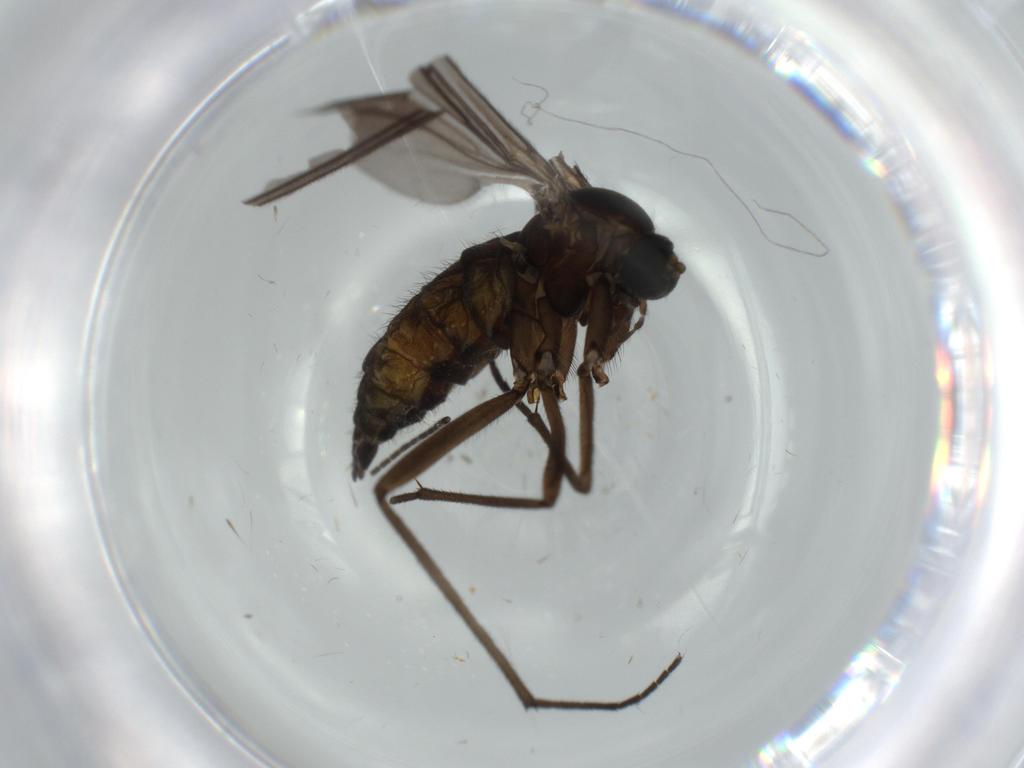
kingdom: Animalia
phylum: Arthropoda
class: Insecta
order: Diptera
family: Sciaridae
